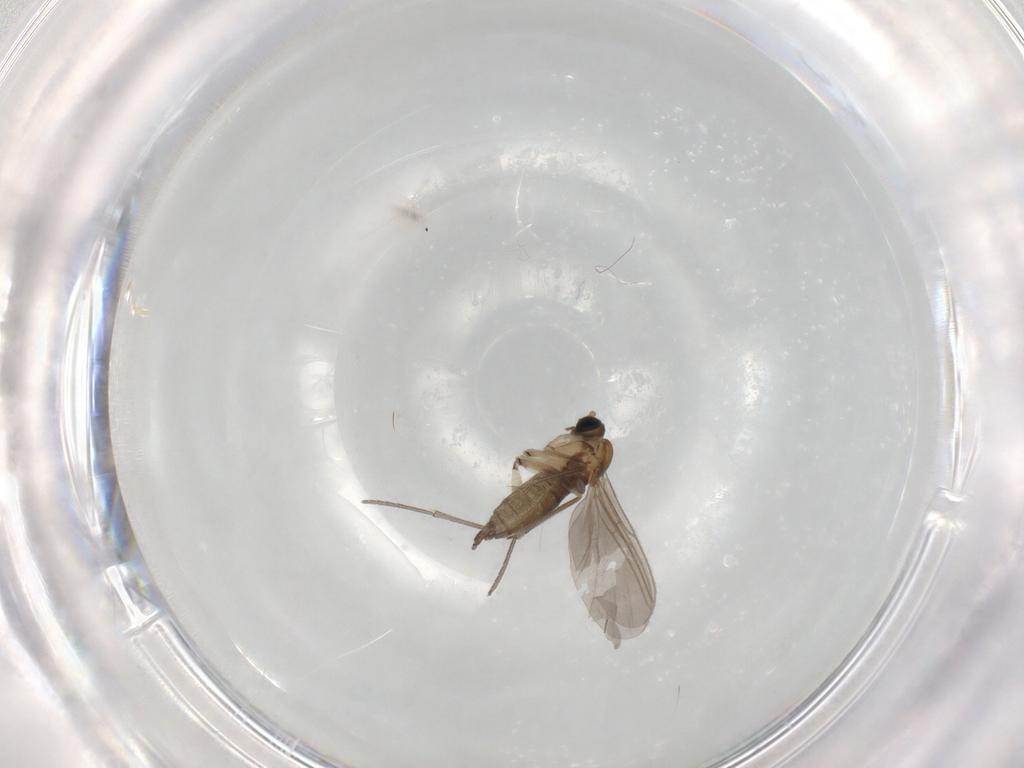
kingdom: Animalia
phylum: Arthropoda
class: Insecta
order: Diptera
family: Sciaridae
